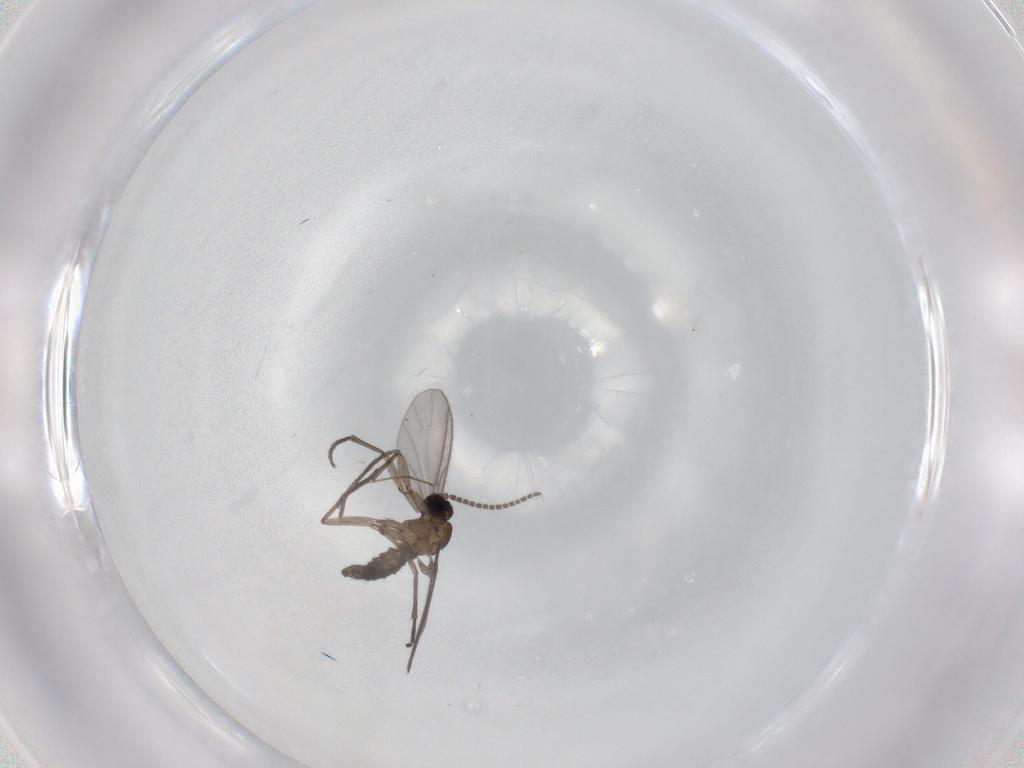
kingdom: Animalia
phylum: Arthropoda
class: Insecta
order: Diptera
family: Sciaridae
